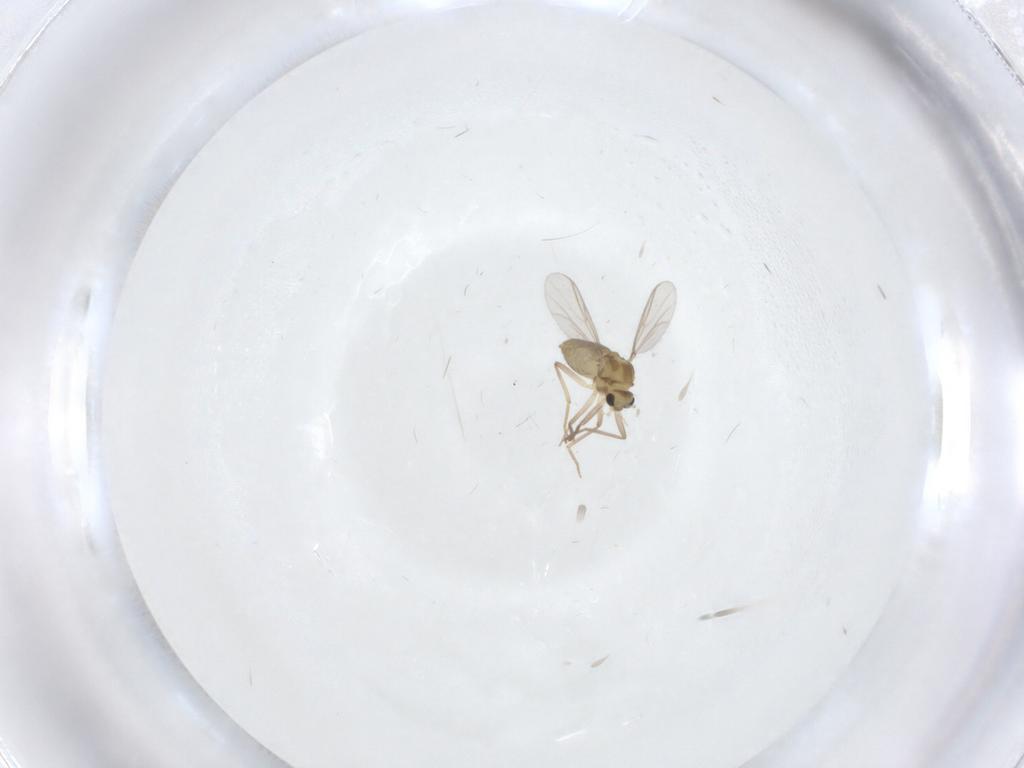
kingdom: Animalia
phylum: Arthropoda
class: Insecta
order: Diptera
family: Chironomidae
